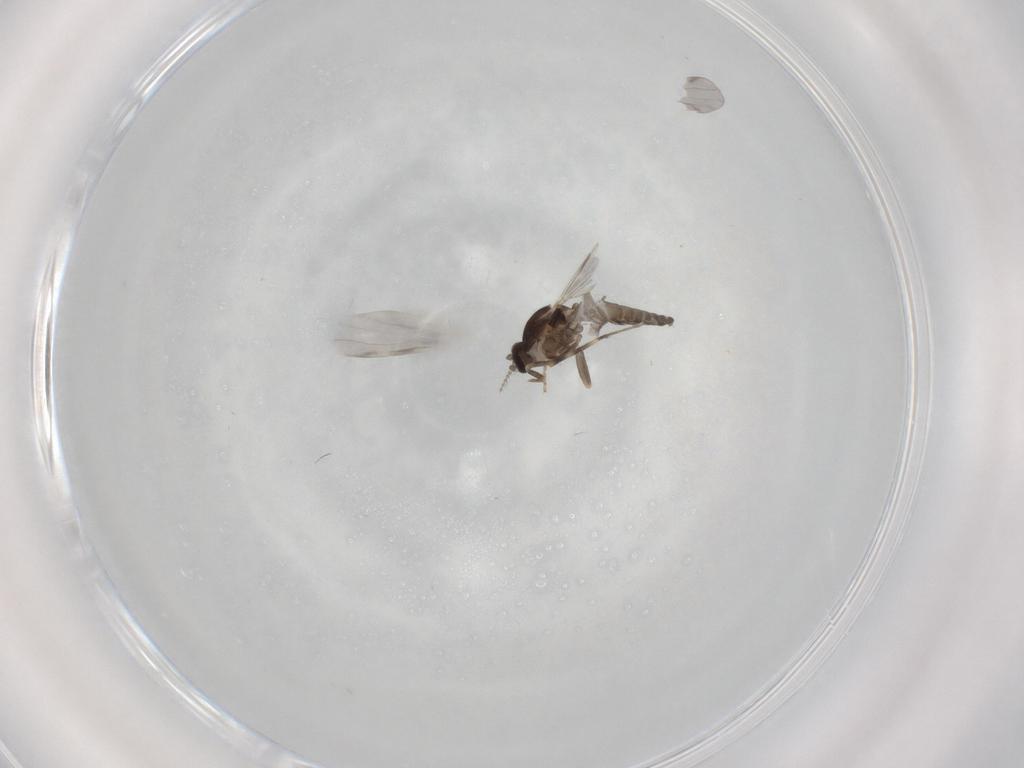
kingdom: Animalia
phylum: Arthropoda
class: Insecta
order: Diptera
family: Ceratopogonidae
